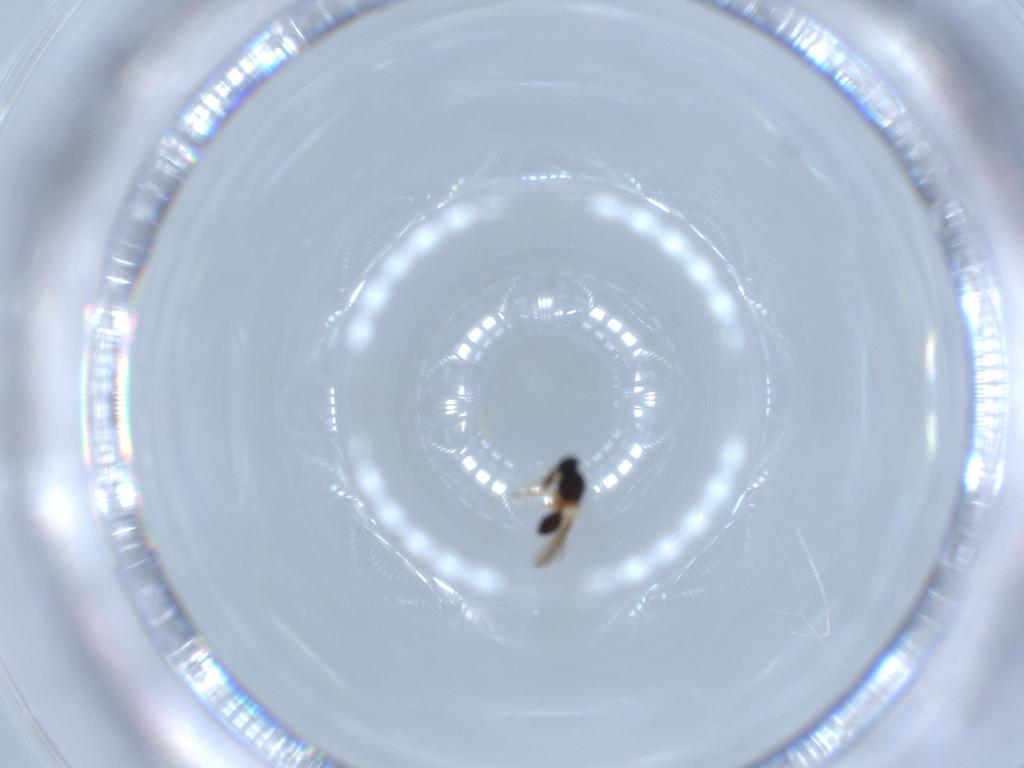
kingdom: Animalia
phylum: Arthropoda
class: Insecta
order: Hymenoptera
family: Platygastridae
